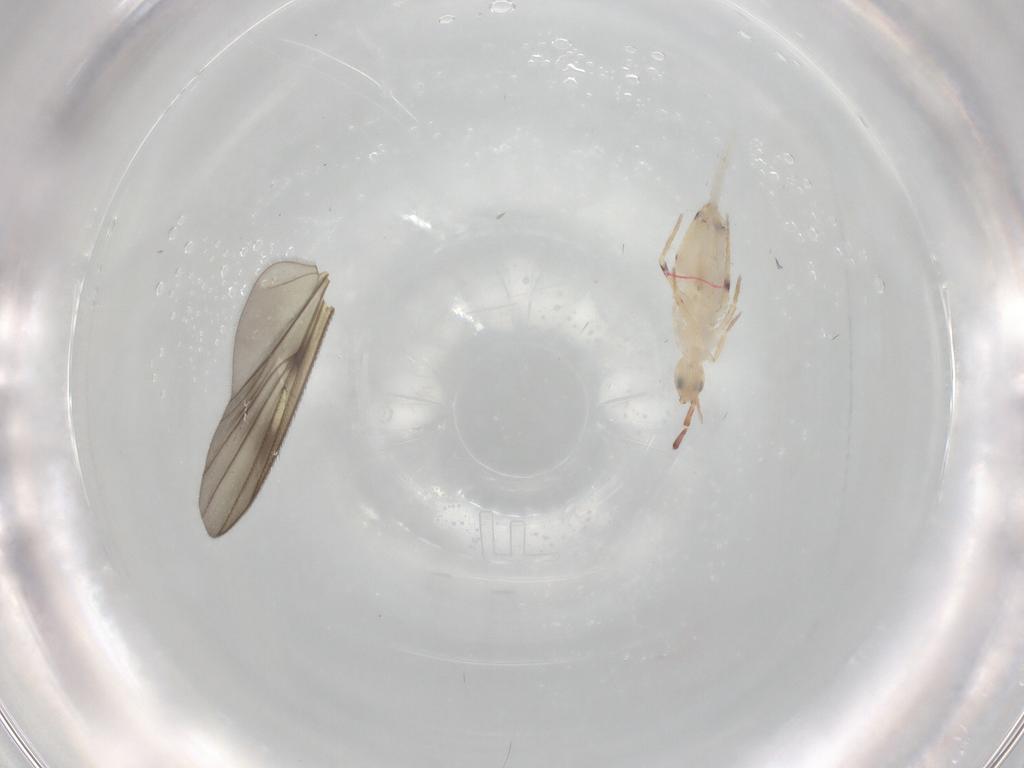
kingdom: Animalia
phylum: Arthropoda
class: Collembola
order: Entomobryomorpha
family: Entomobryidae
